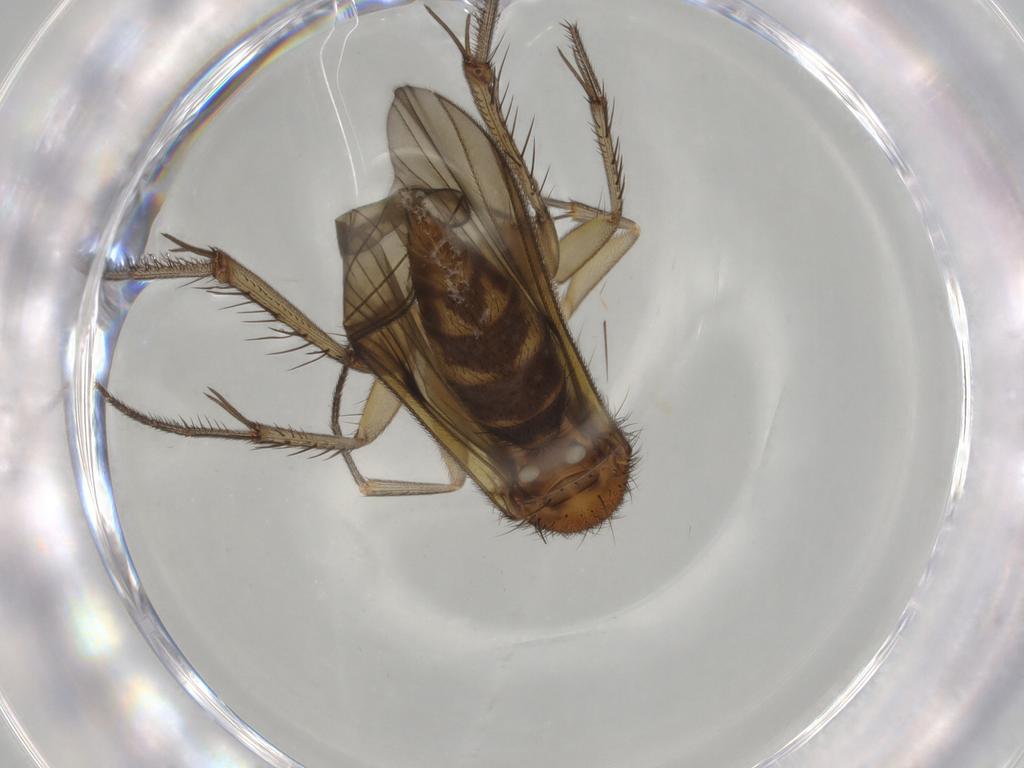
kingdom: Animalia
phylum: Arthropoda
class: Insecta
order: Diptera
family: Mycetophilidae
